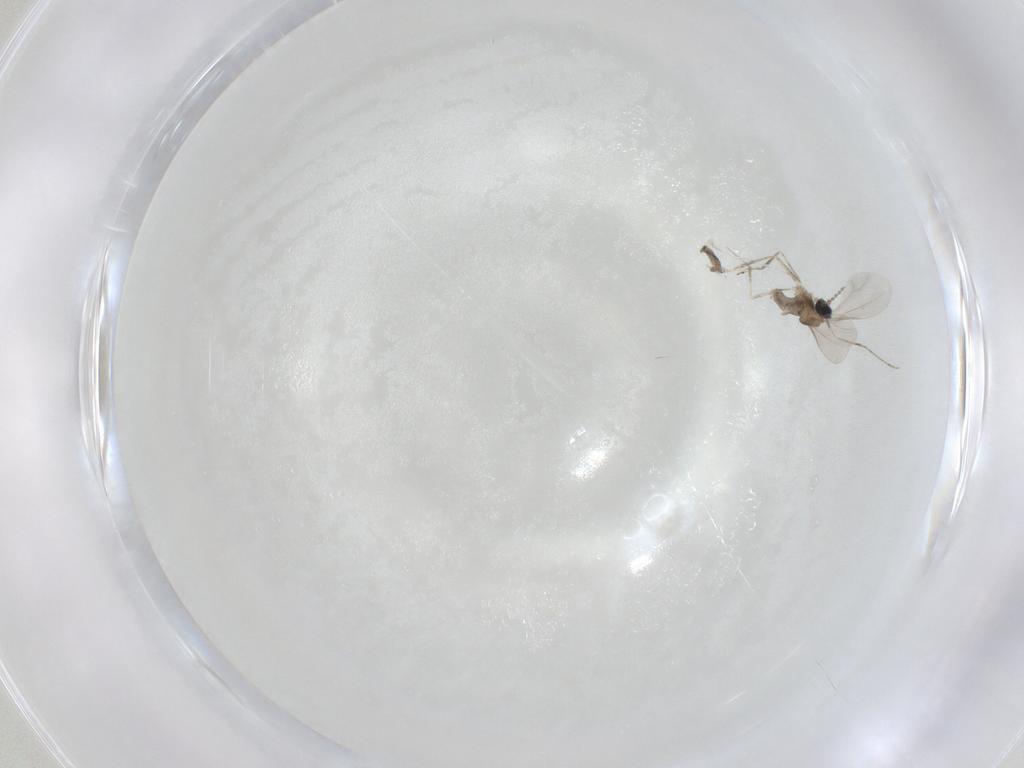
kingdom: Animalia
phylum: Arthropoda
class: Insecta
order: Diptera
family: Cecidomyiidae
